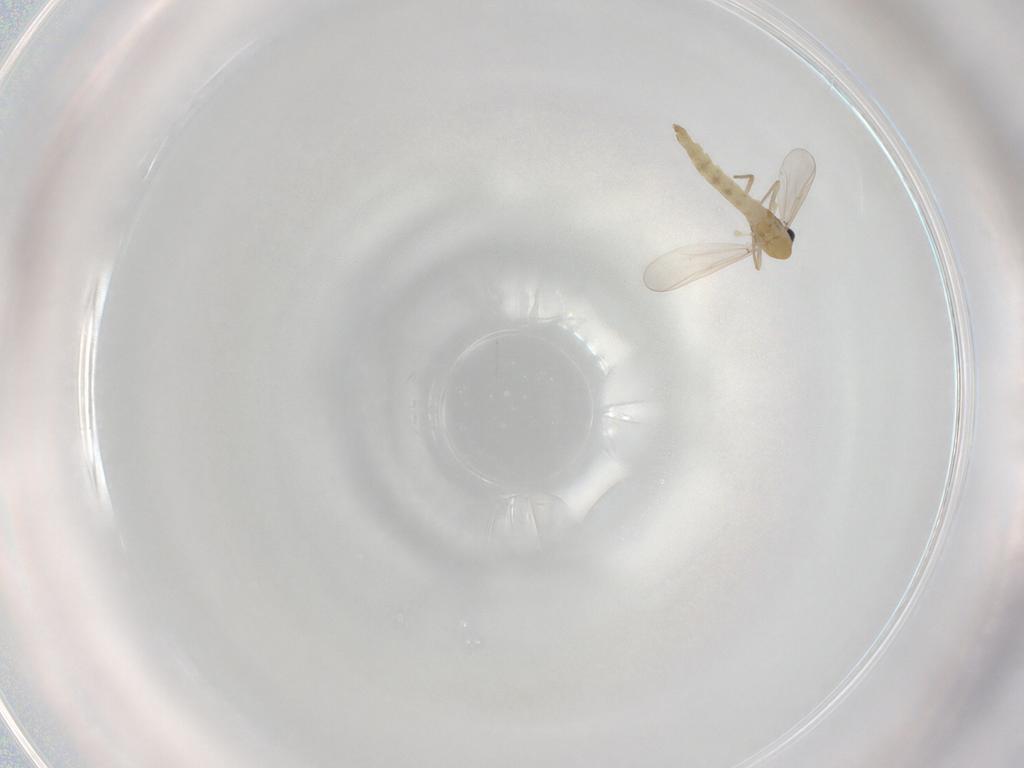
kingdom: Animalia
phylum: Arthropoda
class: Insecta
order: Diptera
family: Chironomidae
